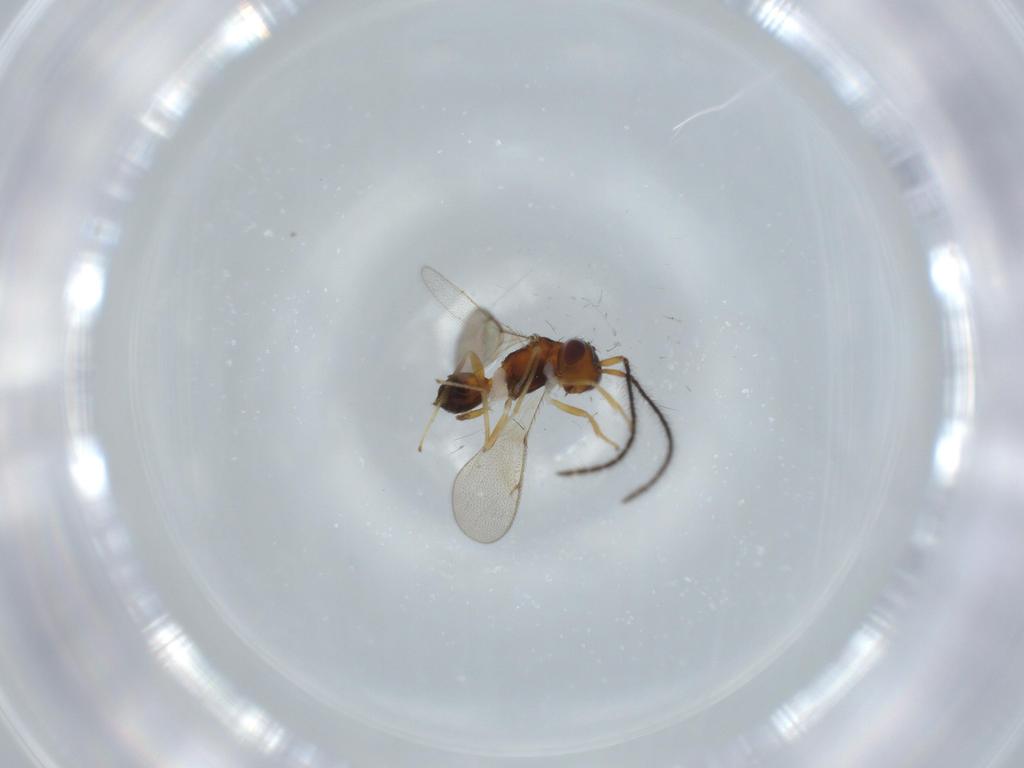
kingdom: Animalia
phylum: Arthropoda
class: Insecta
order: Hymenoptera
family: Diparidae
